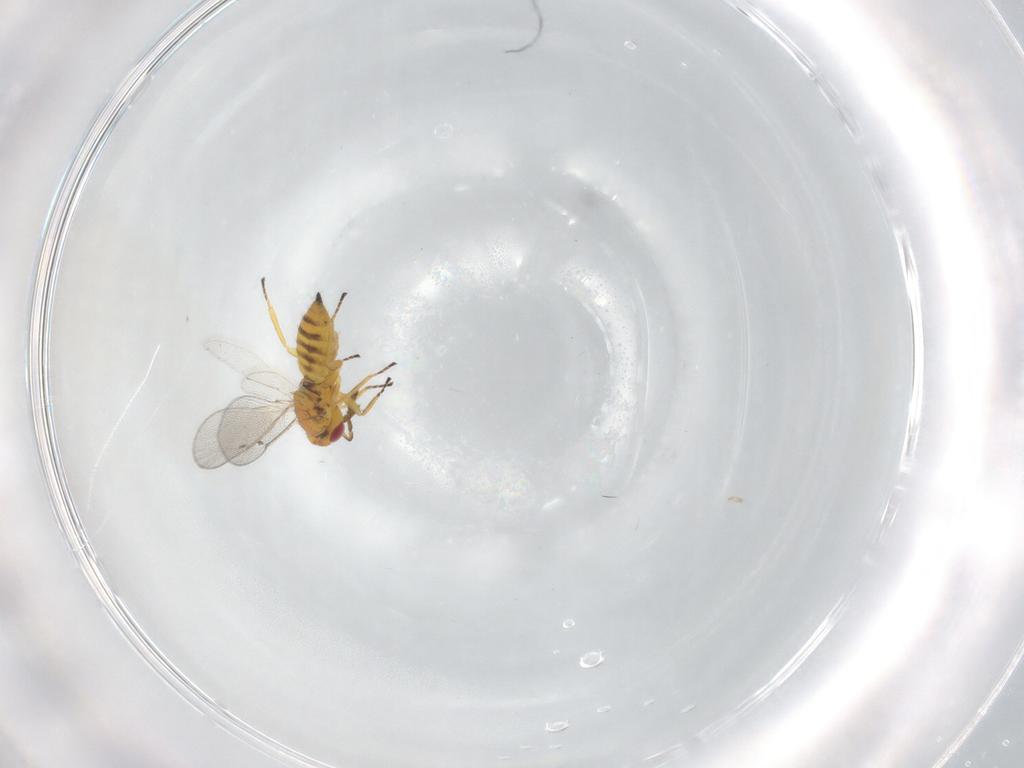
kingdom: Animalia
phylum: Arthropoda
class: Insecta
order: Hymenoptera
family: Eulophidae
